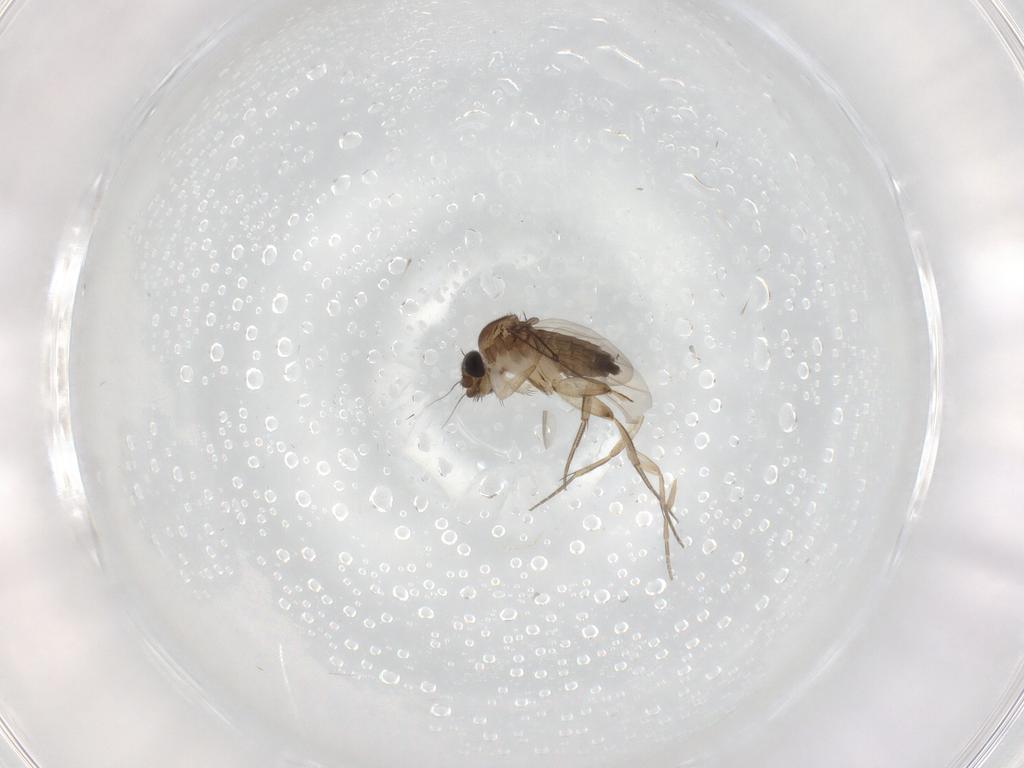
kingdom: Animalia
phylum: Arthropoda
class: Insecta
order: Diptera
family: Phoridae
